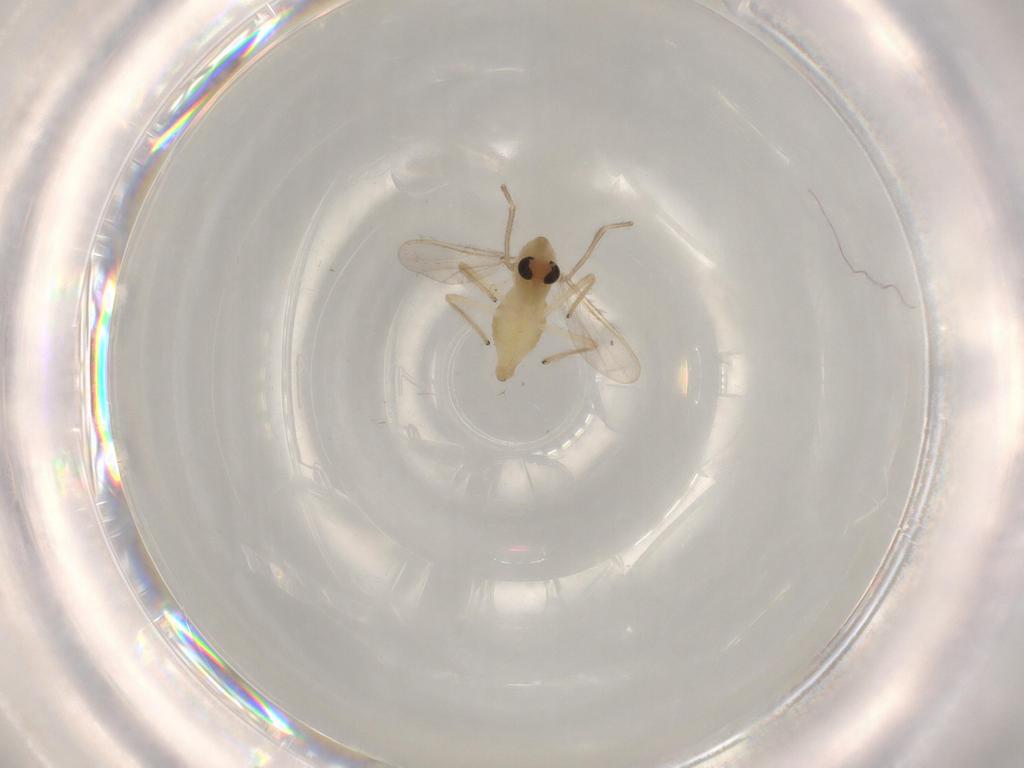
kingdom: Animalia
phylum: Arthropoda
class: Insecta
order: Diptera
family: Chironomidae
